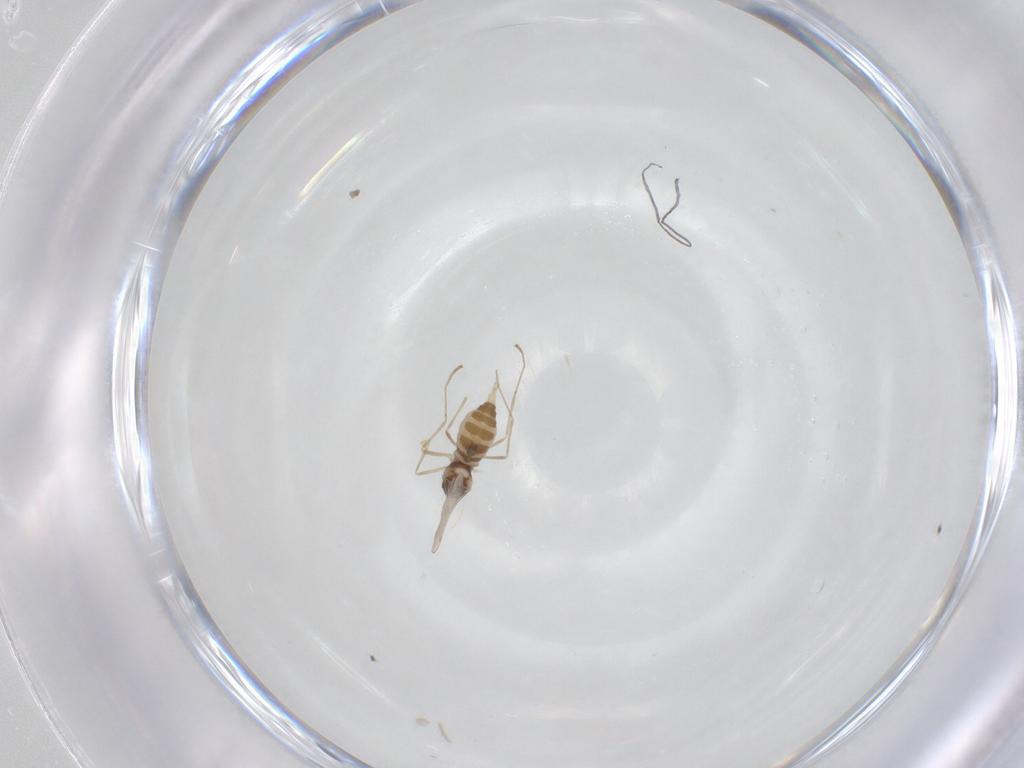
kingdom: Animalia
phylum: Arthropoda
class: Insecta
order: Diptera
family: Cecidomyiidae
